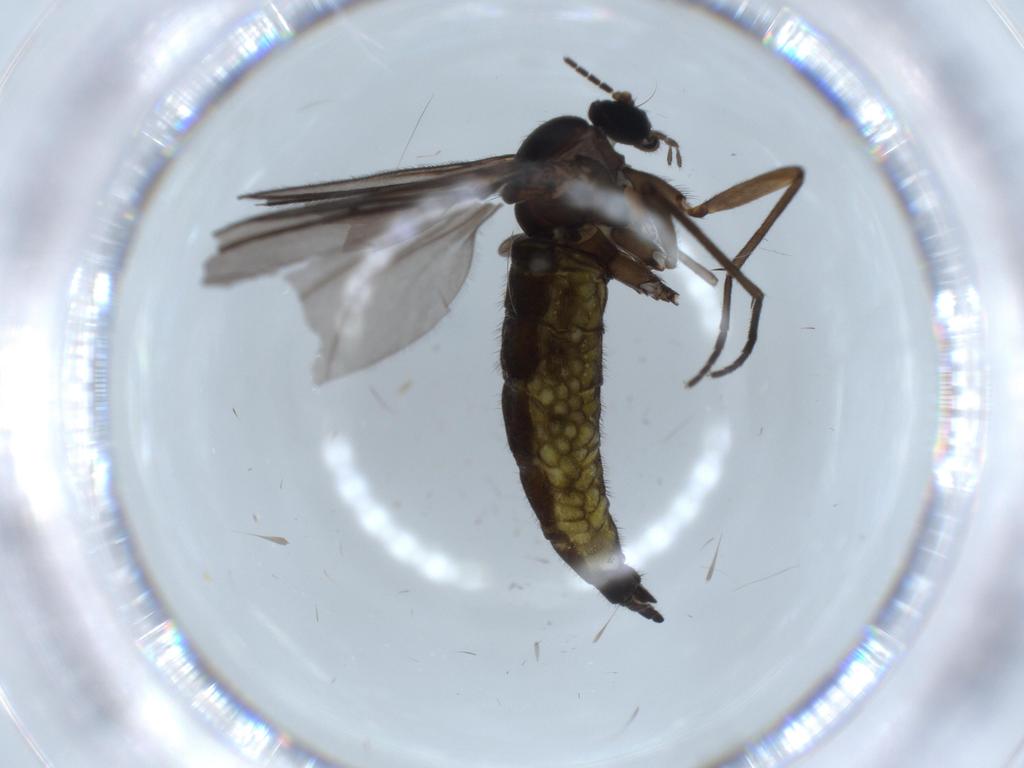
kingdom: Animalia
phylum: Arthropoda
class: Insecta
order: Diptera
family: Sciaridae
